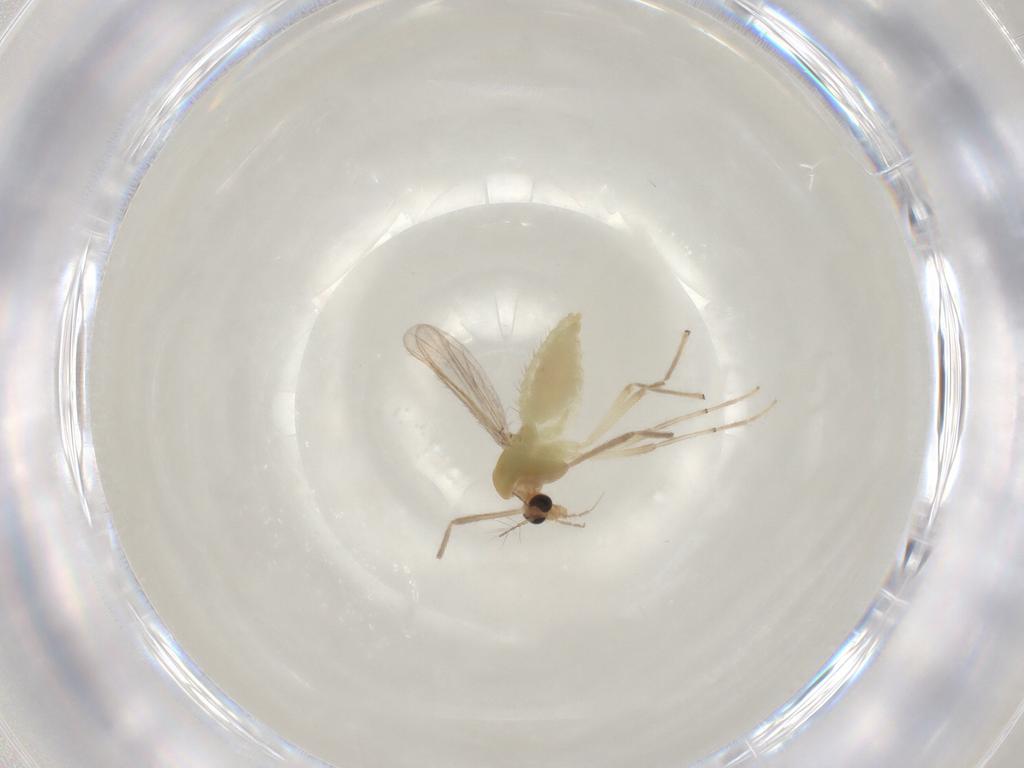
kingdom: Animalia
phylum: Arthropoda
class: Insecta
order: Diptera
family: Chironomidae
